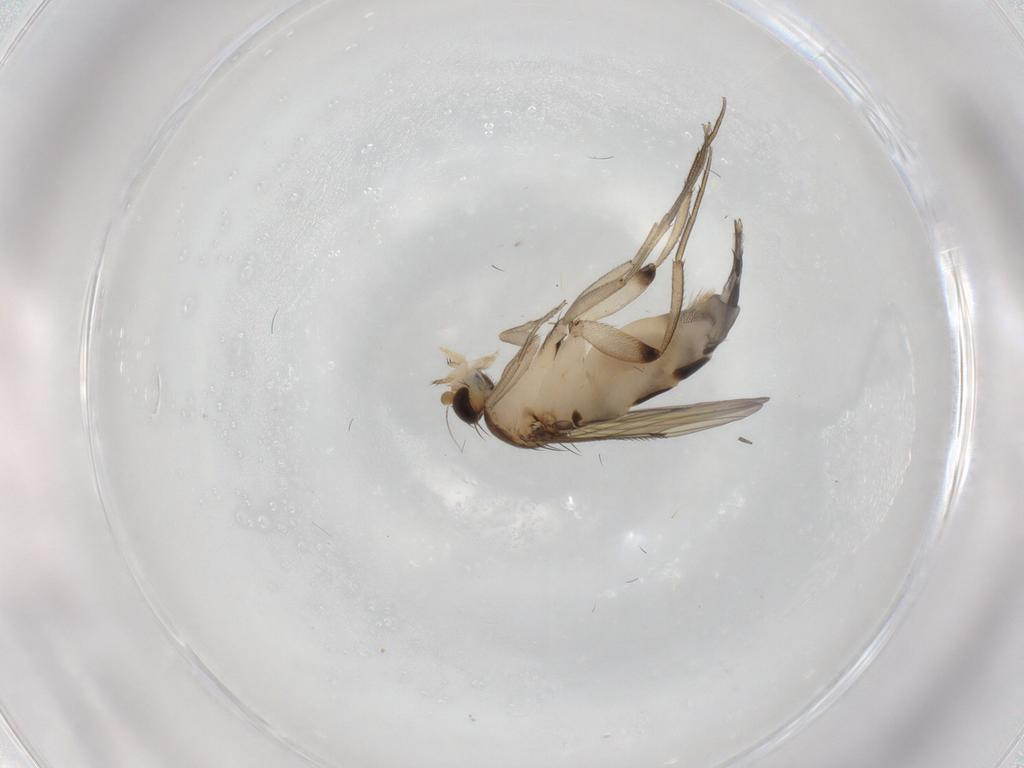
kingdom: Animalia
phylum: Arthropoda
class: Insecta
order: Diptera
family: Phoridae
